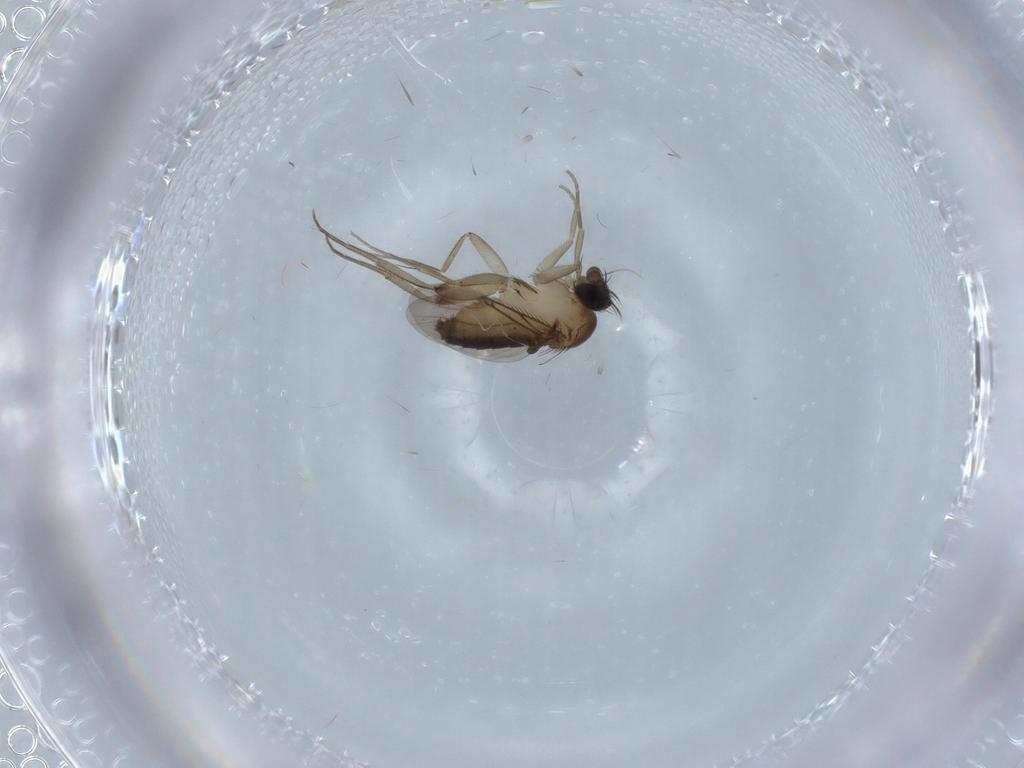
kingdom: Animalia
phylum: Arthropoda
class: Insecta
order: Diptera
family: Phoridae
